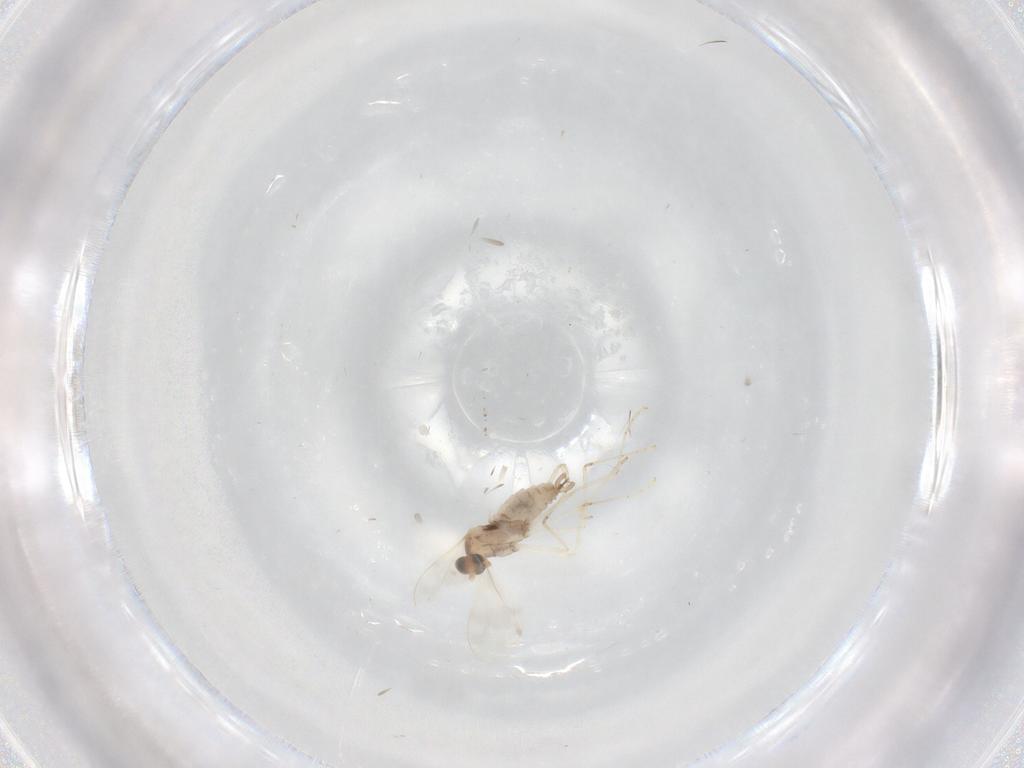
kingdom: Animalia
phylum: Arthropoda
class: Insecta
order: Diptera
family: Cecidomyiidae
